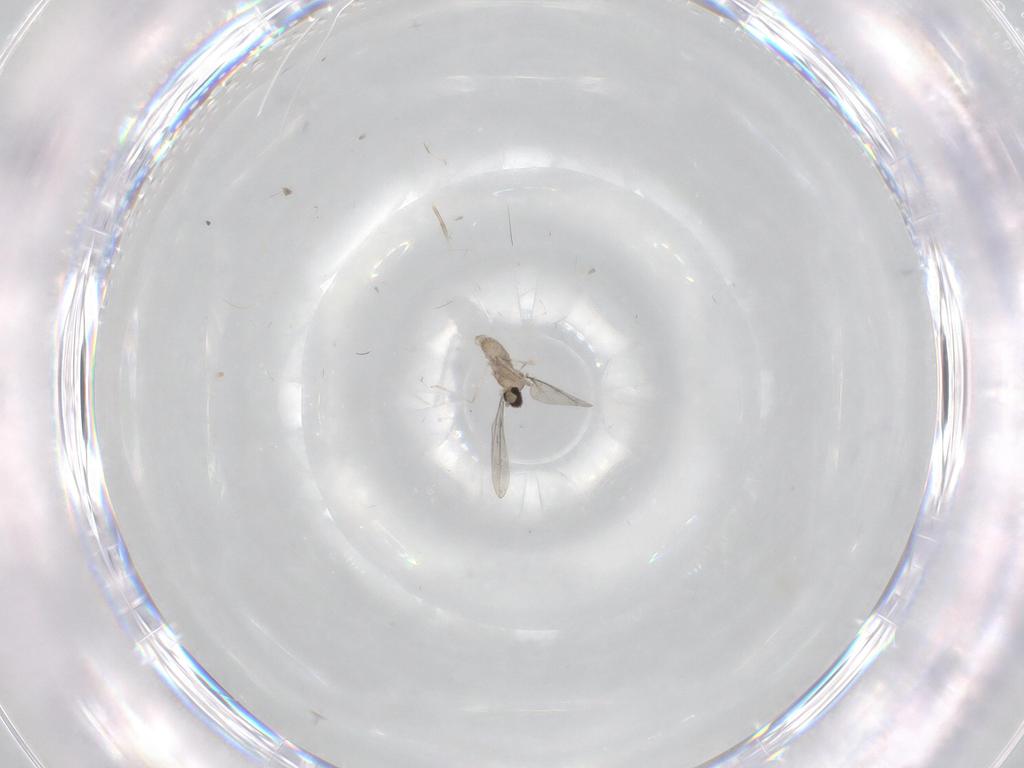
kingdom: Animalia
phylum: Arthropoda
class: Insecta
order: Diptera
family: Cecidomyiidae
